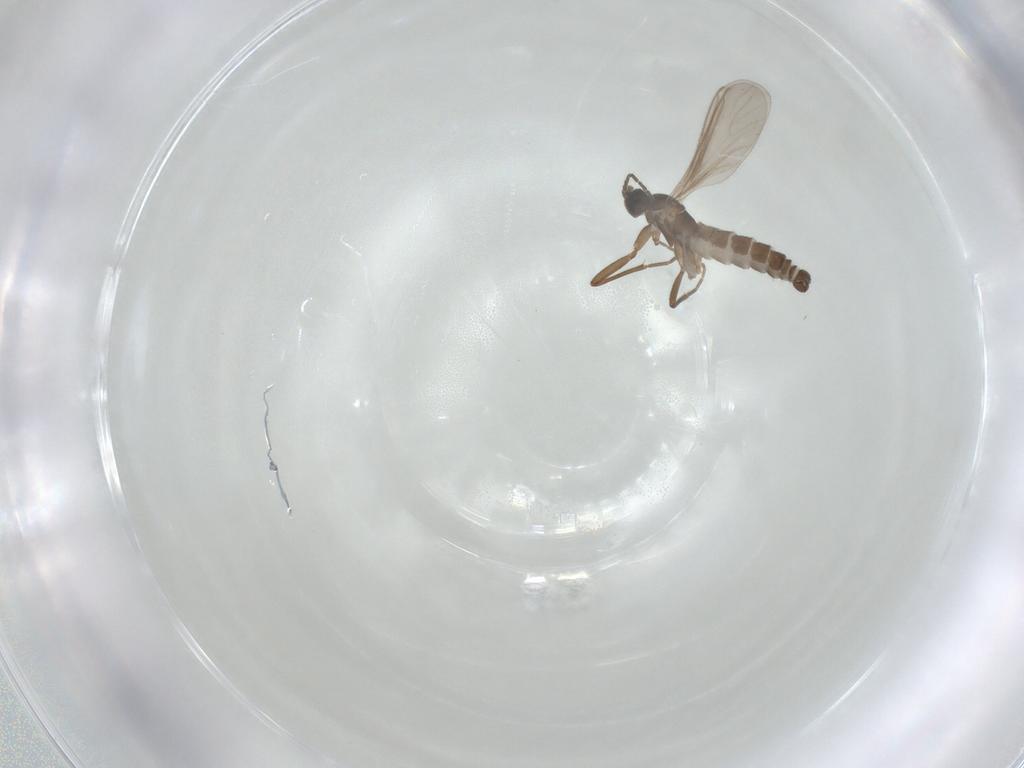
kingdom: Animalia
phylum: Arthropoda
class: Insecta
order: Diptera
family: Sciaridae
